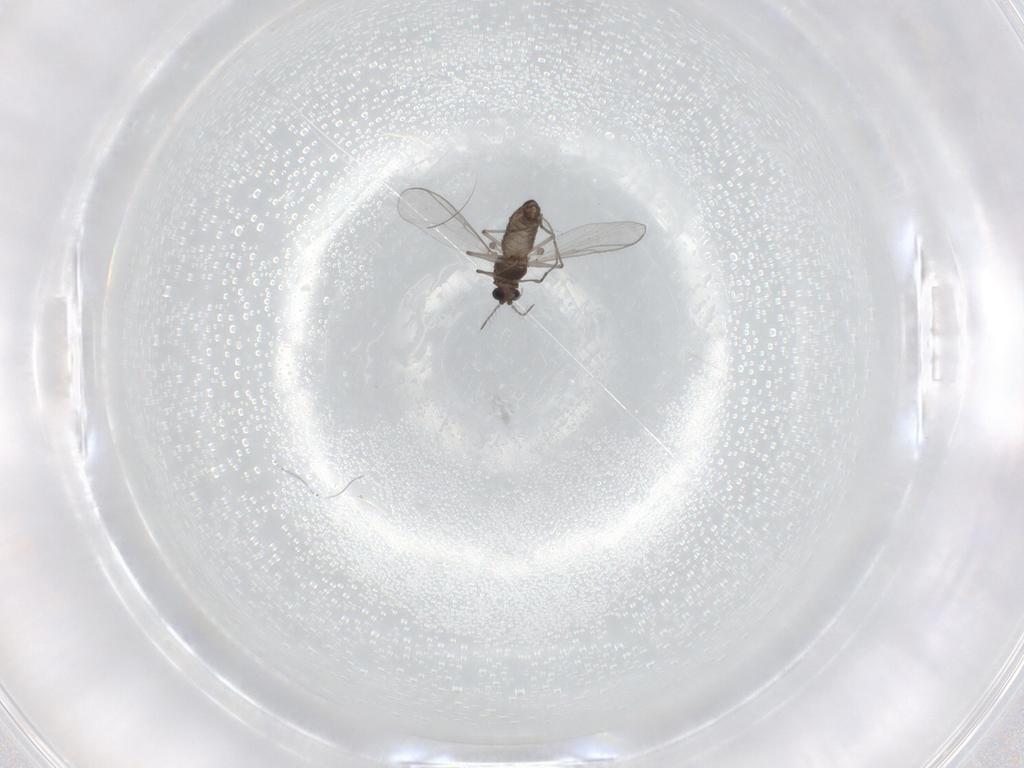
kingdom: Animalia
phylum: Arthropoda
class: Insecta
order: Diptera
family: Chironomidae
